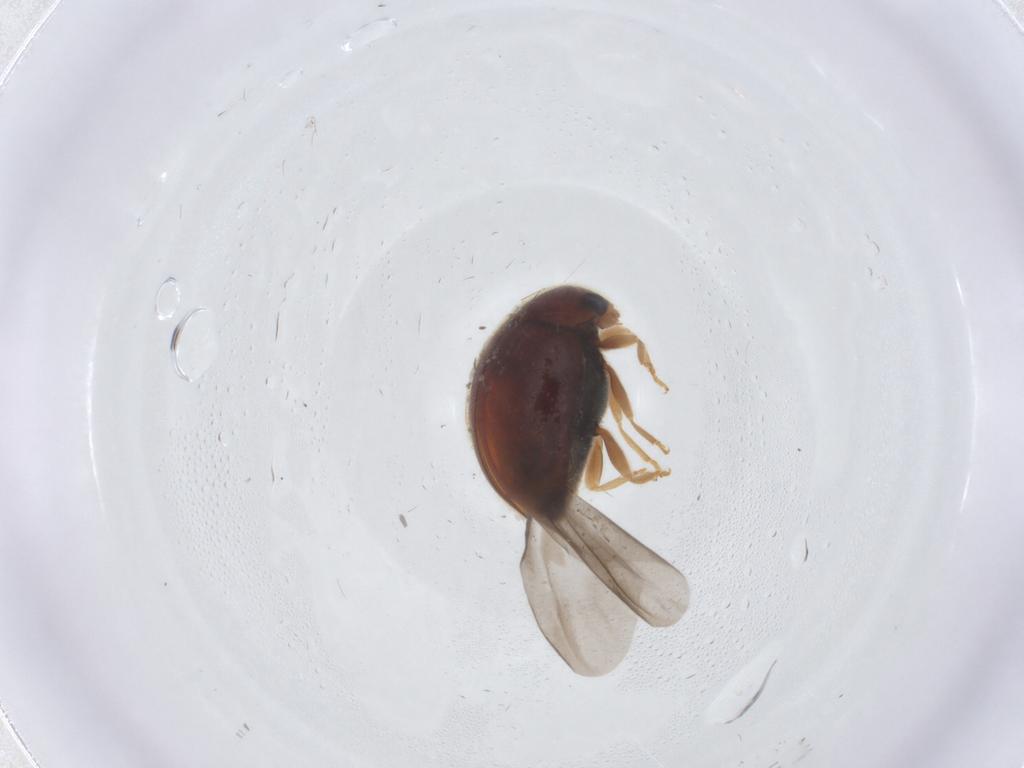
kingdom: Animalia
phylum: Arthropoda
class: Insecta
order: Coleoptera
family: Coccinellidae
